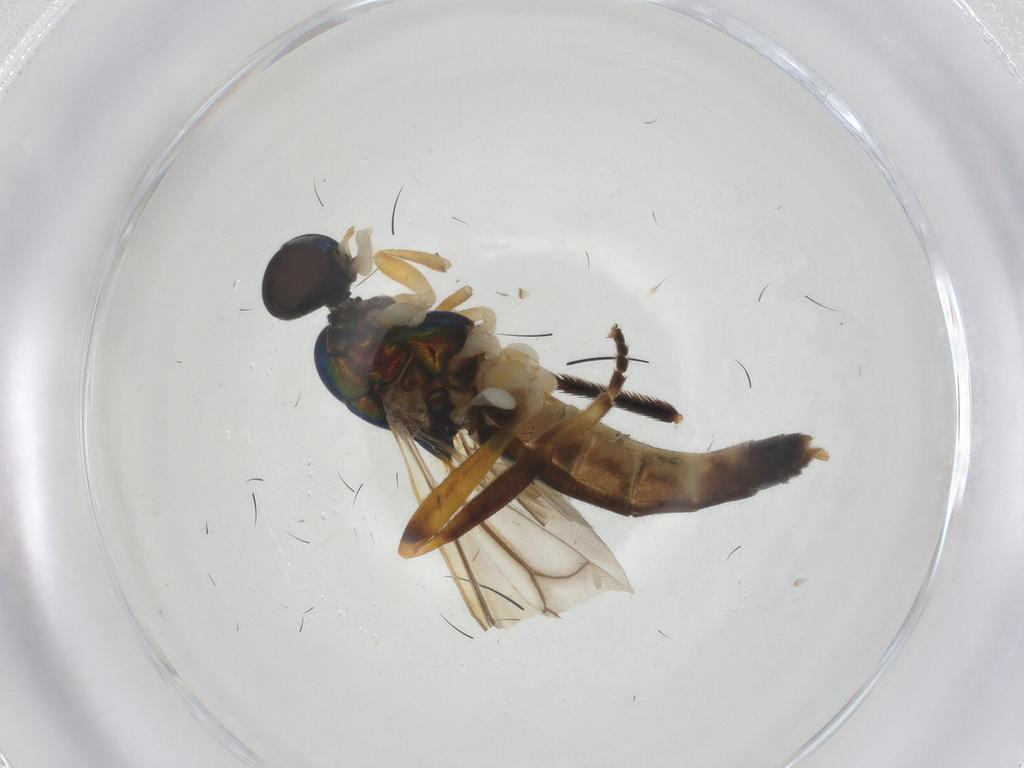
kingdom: Animalia
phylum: Arthropoda
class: Insecta
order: Diptera
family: Stratiomyidae
